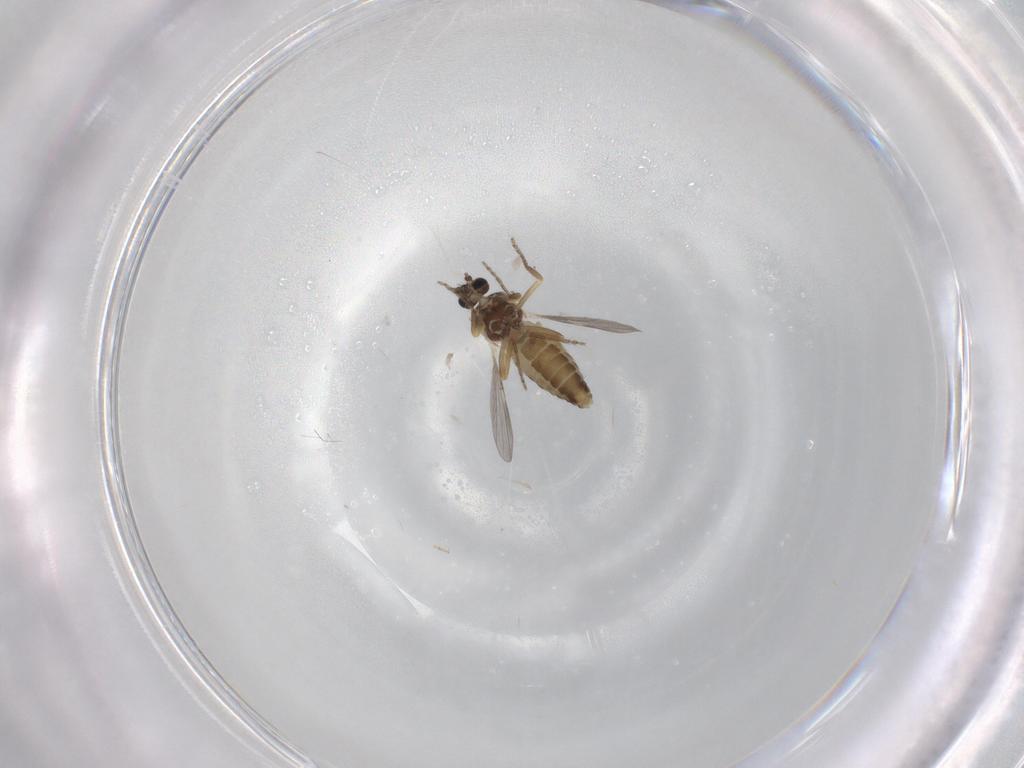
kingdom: Animalia
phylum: Arthropoda
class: Insecta
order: Diptera
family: Ceratopogonidae
